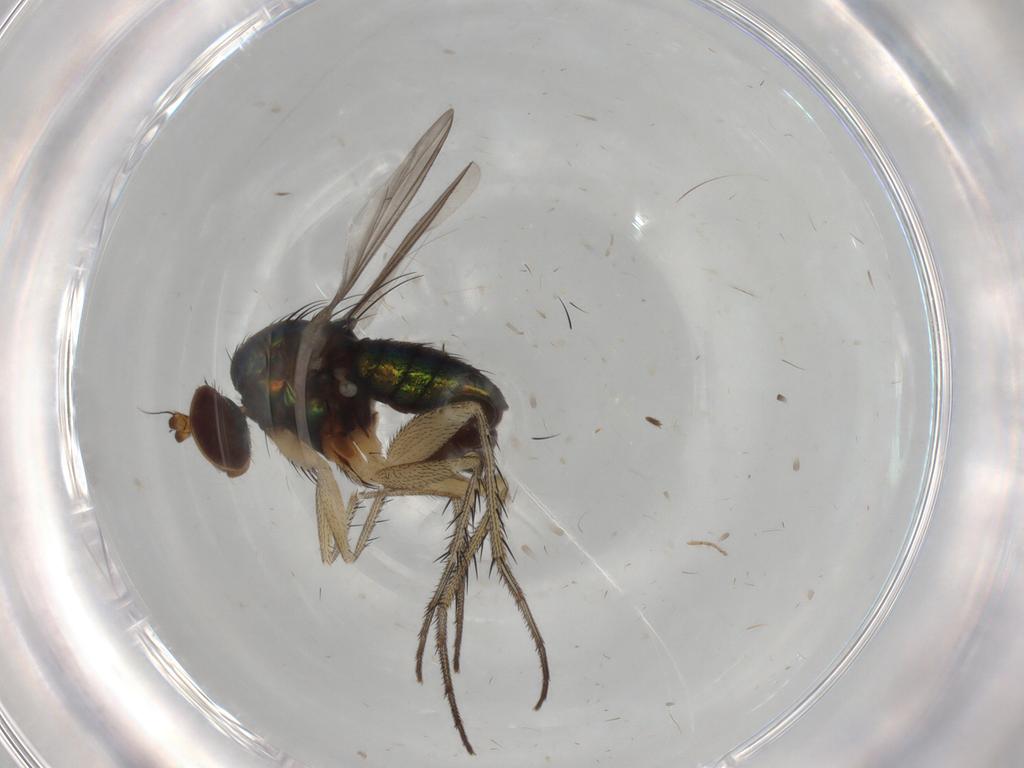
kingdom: Animalia
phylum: Arthropoda
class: Insecta
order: Diptera
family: Dolichopodidae
